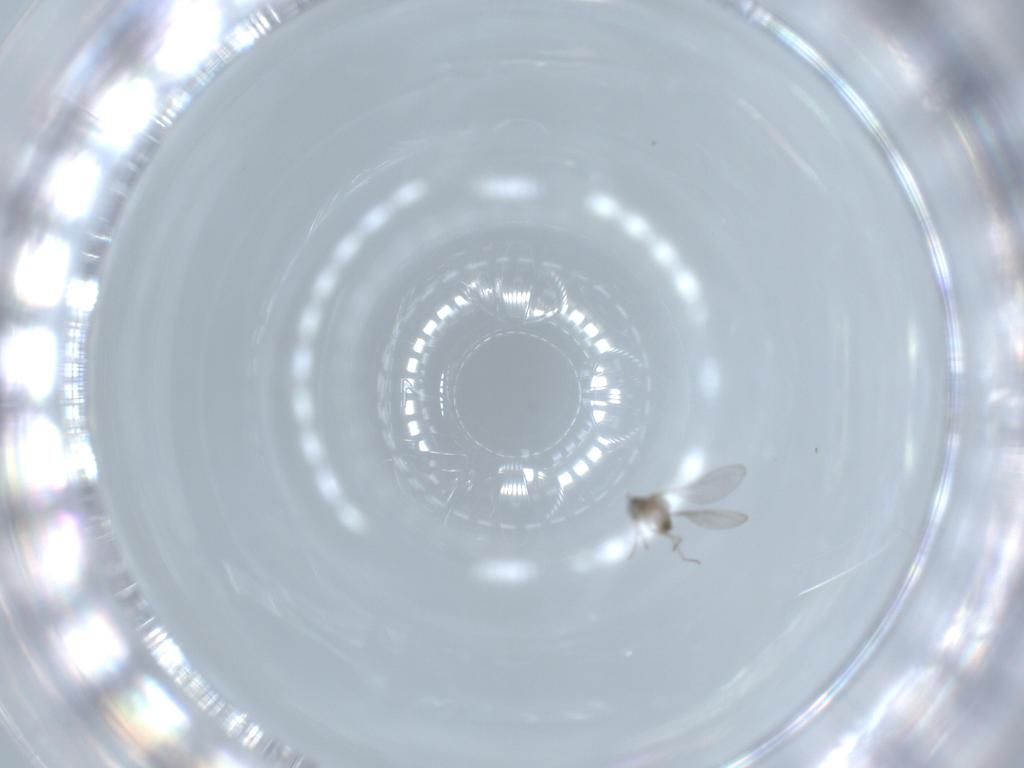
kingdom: Animalia
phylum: Arthropoda
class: Insecta
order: Diptera
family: Cecidomyiidae
